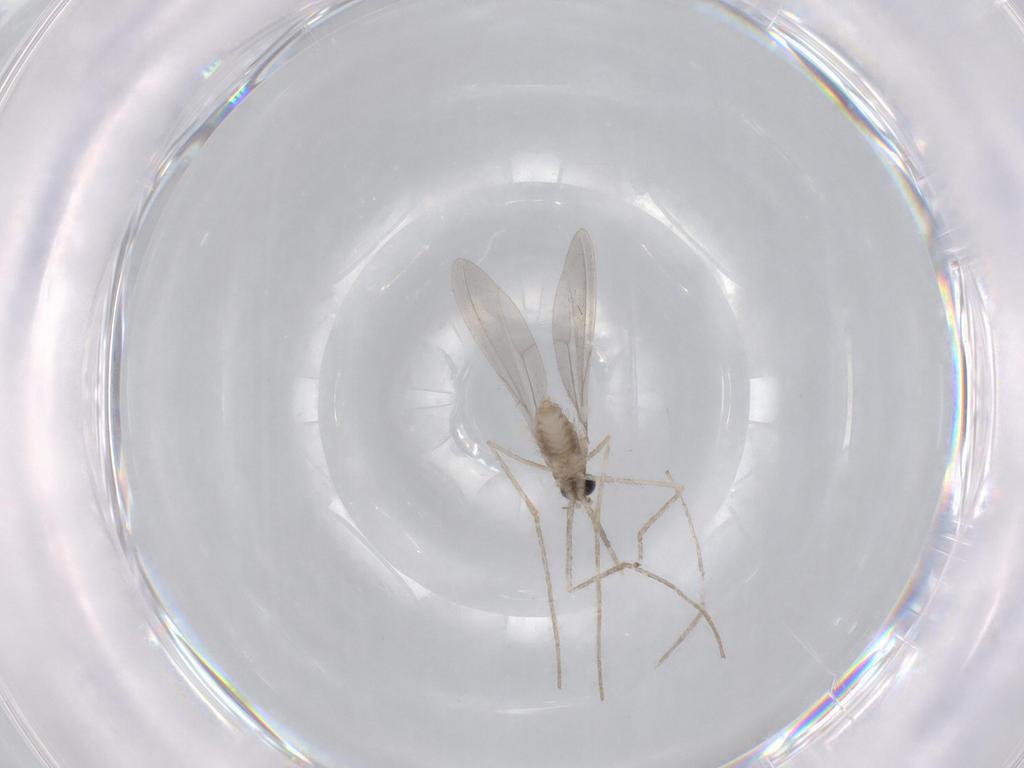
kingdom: Animalia
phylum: Arthropoda
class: Insecta
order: Diptera
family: Cecidomyiidae
